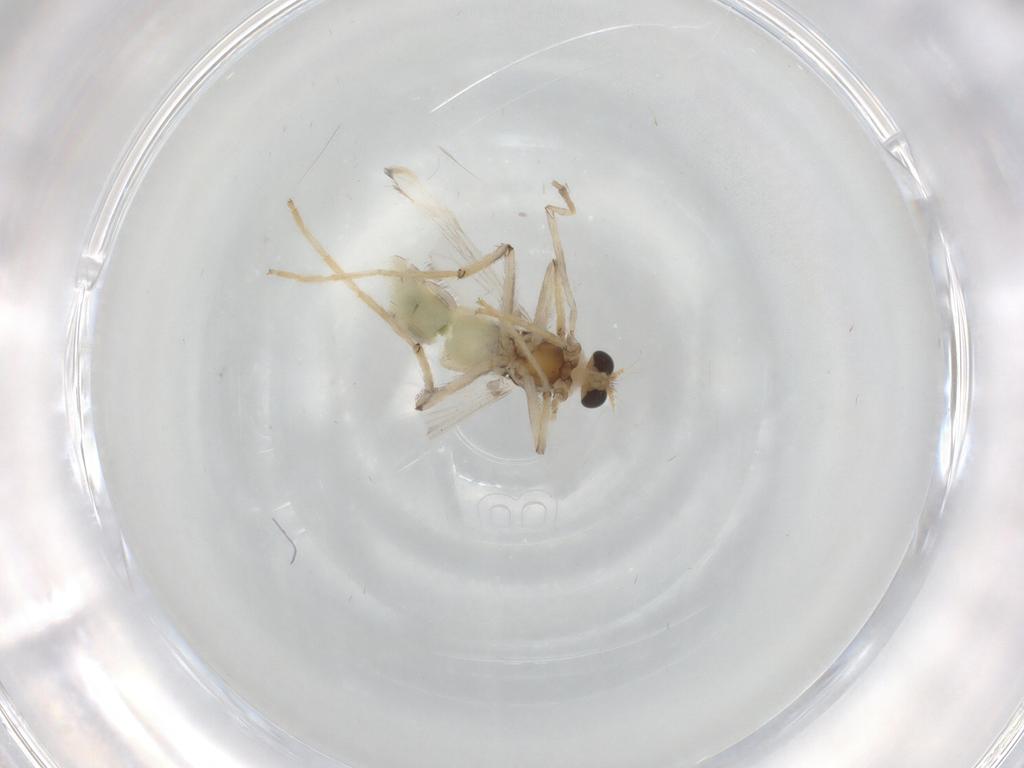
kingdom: Animalia
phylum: Arthropoda
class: Insecta
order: Diptera
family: Chironomidae
